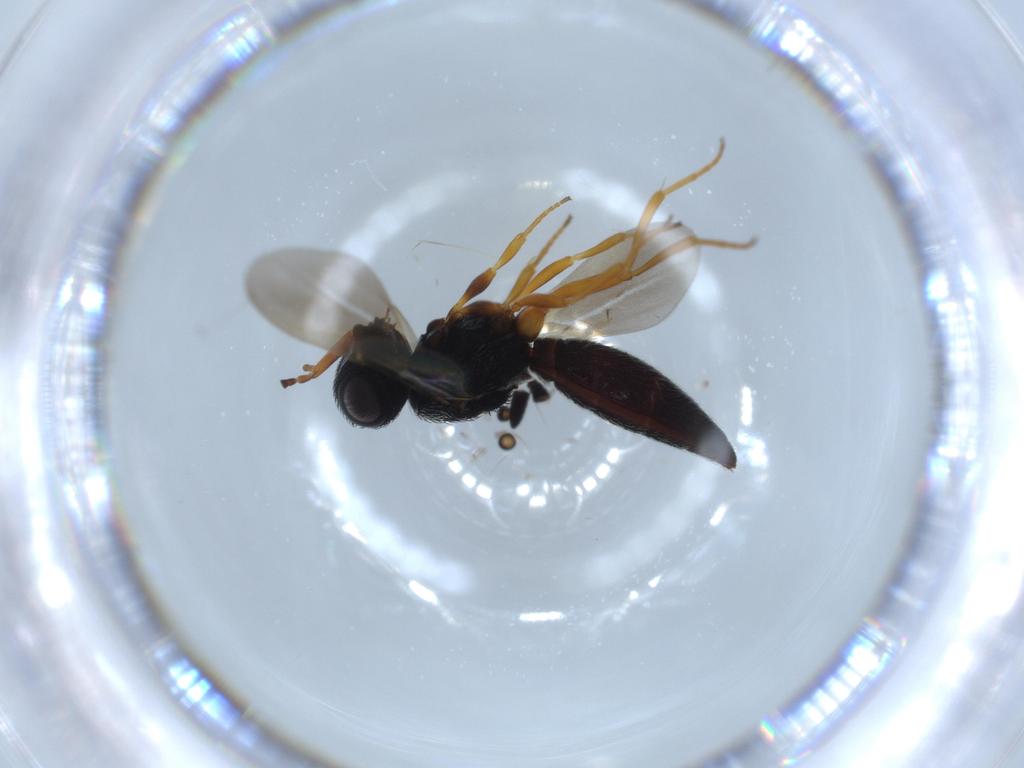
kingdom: Animalia
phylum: Arthropoda
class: Insecta
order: Hymenoptera
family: Scelionidae
